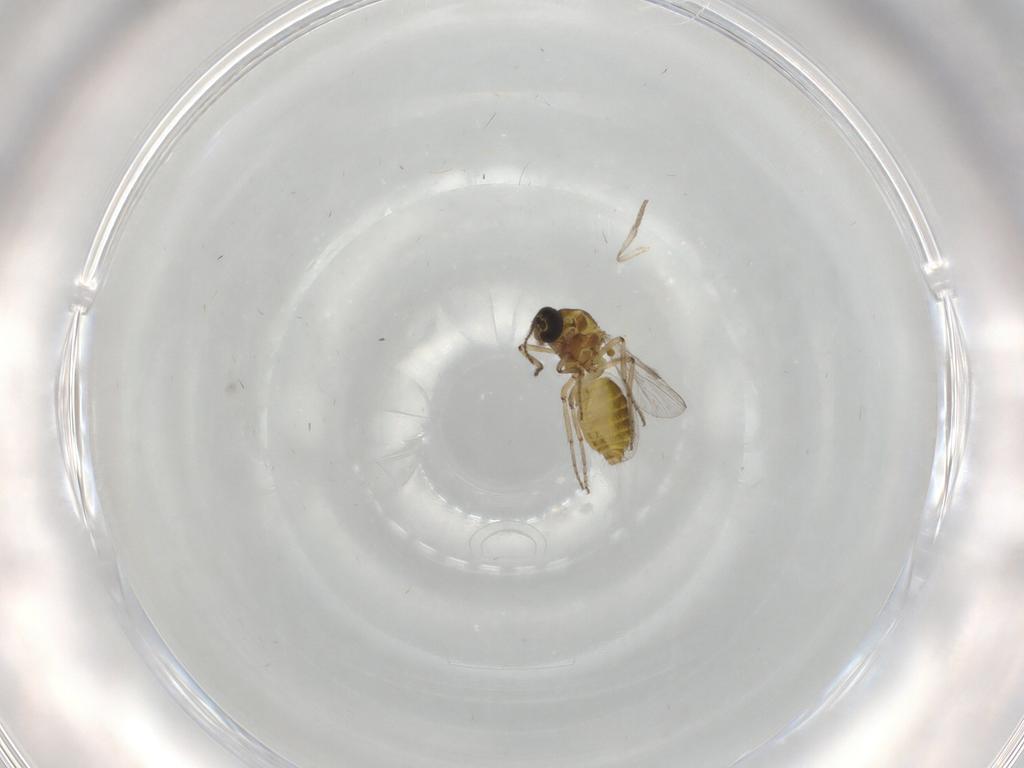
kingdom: Animalia
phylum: Arthropoda
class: Insecta
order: Diptera
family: Ceratopogonidae
